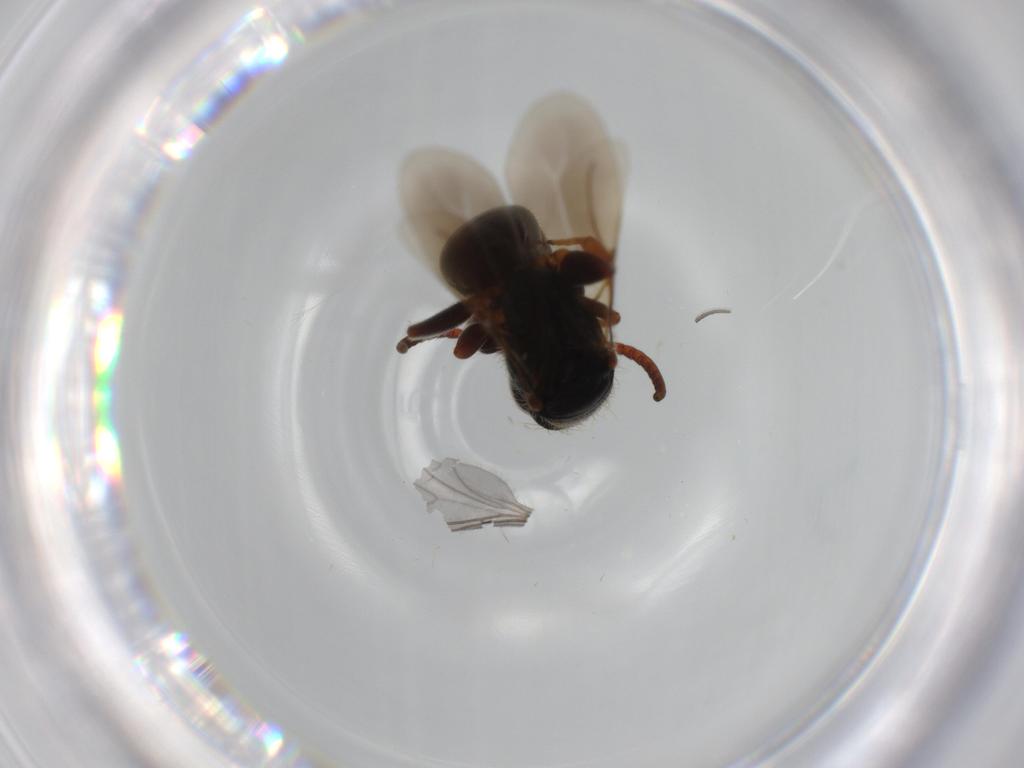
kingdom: Animalia
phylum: Arthropoda
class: Insecta
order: Hymenoptera
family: Bethylidae
